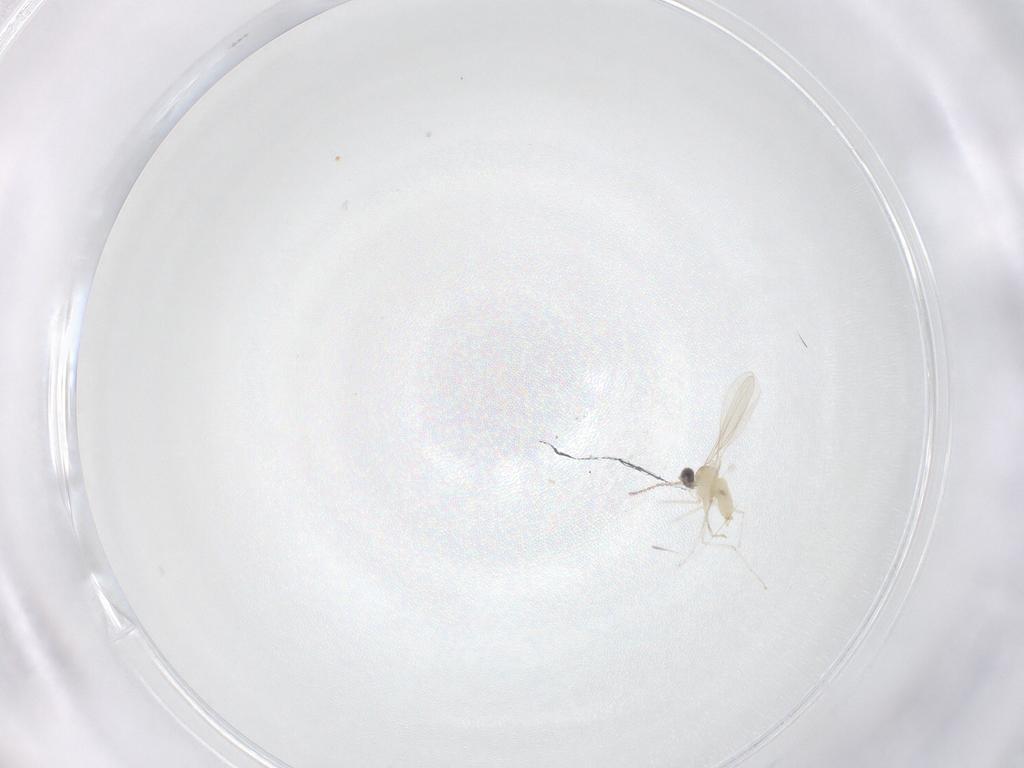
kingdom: Animalia
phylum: Arthropoda
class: Insecta
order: Diptera
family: Cecidomyiidae
